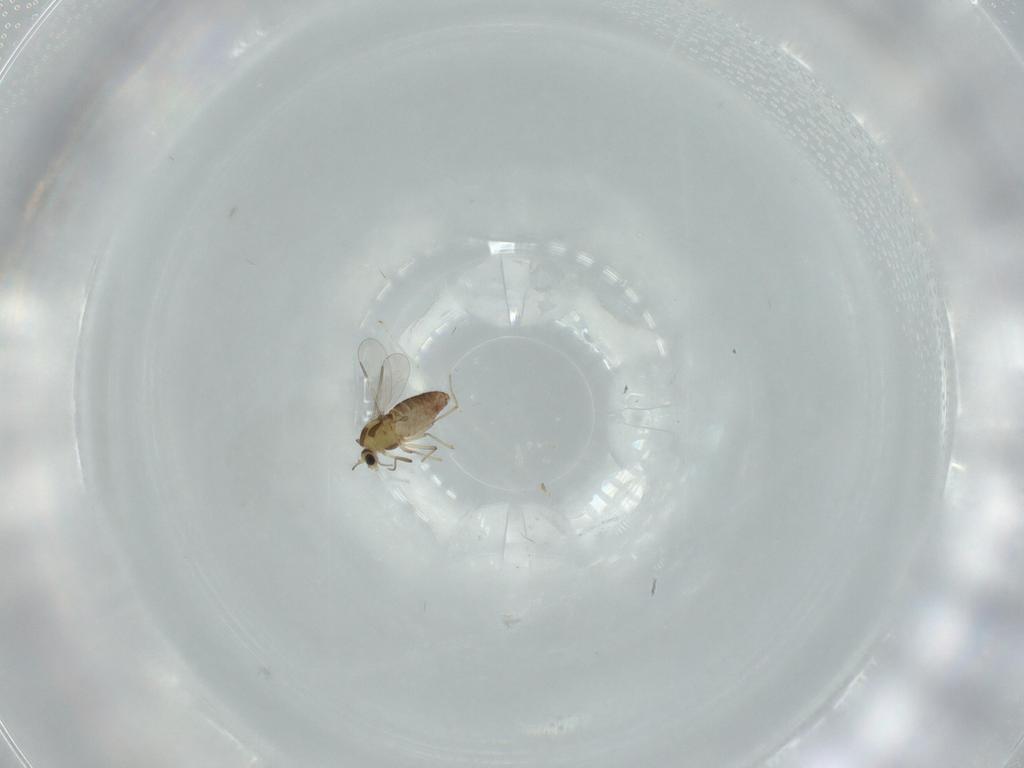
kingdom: Animalia
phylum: Arthropoda
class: Insecta
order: Diptera
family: Chironomidae
